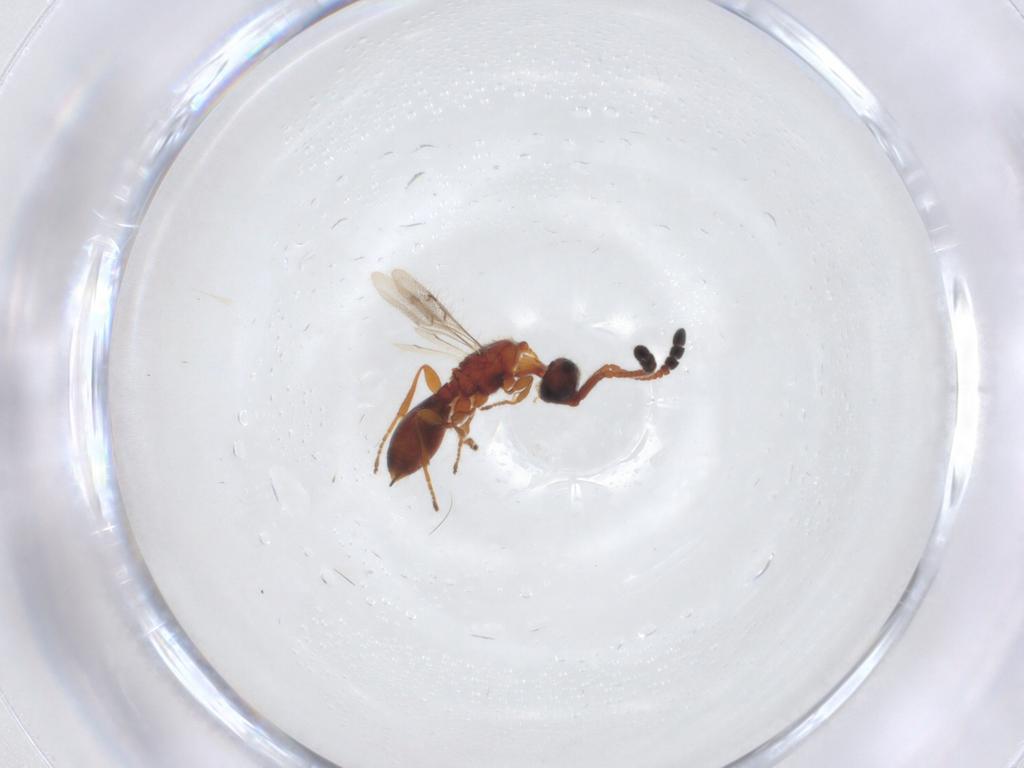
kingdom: Animalia
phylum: Arthropoda
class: Insecta
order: Hymenoptera
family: Diapriidae
